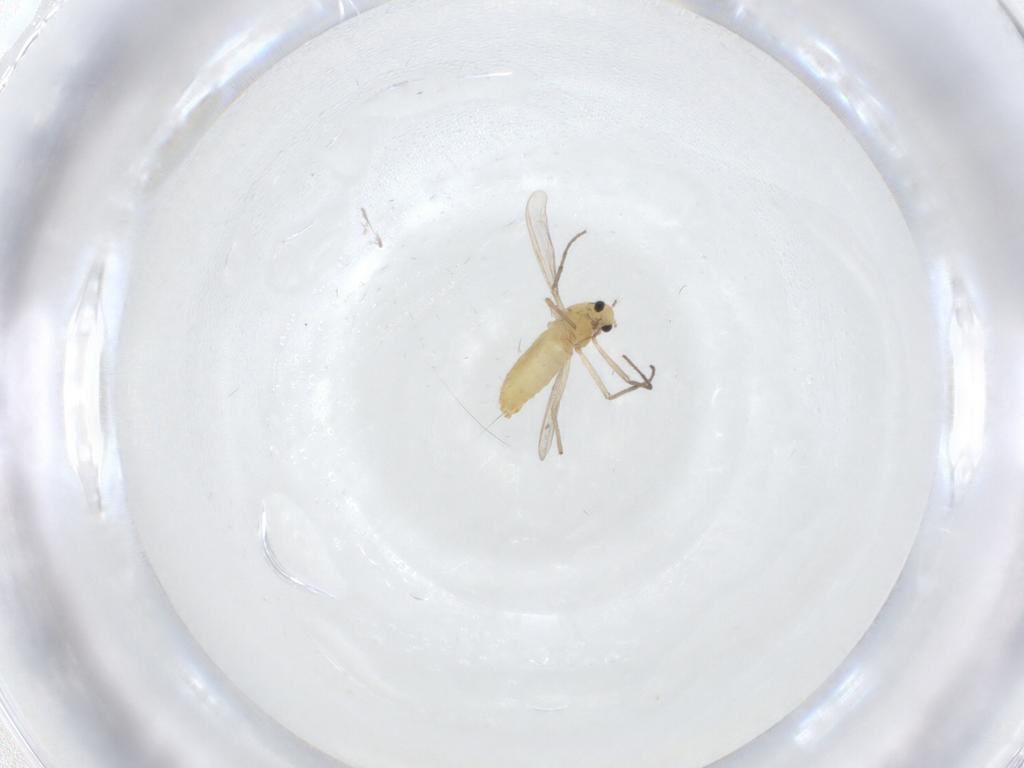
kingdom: Animalia
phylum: Arthropoda
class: Insecta
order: Diptera
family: Chironomidae
